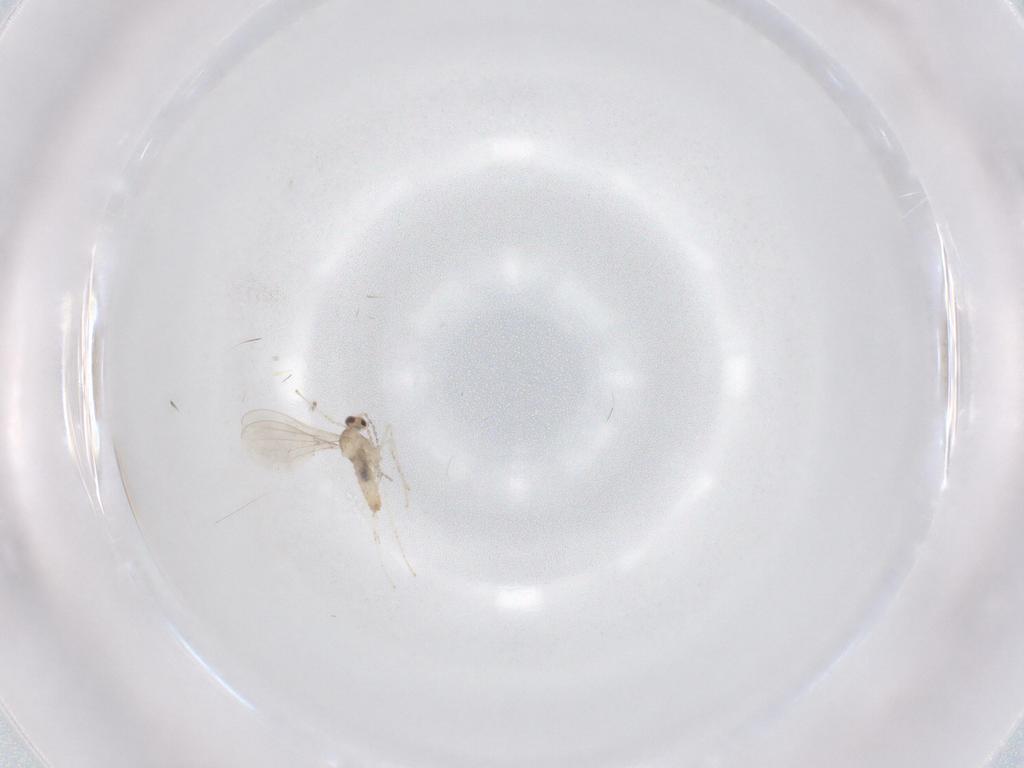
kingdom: Animalia
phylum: Arthropoda
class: Insecta
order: Diptera
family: Cecidomyiidae
